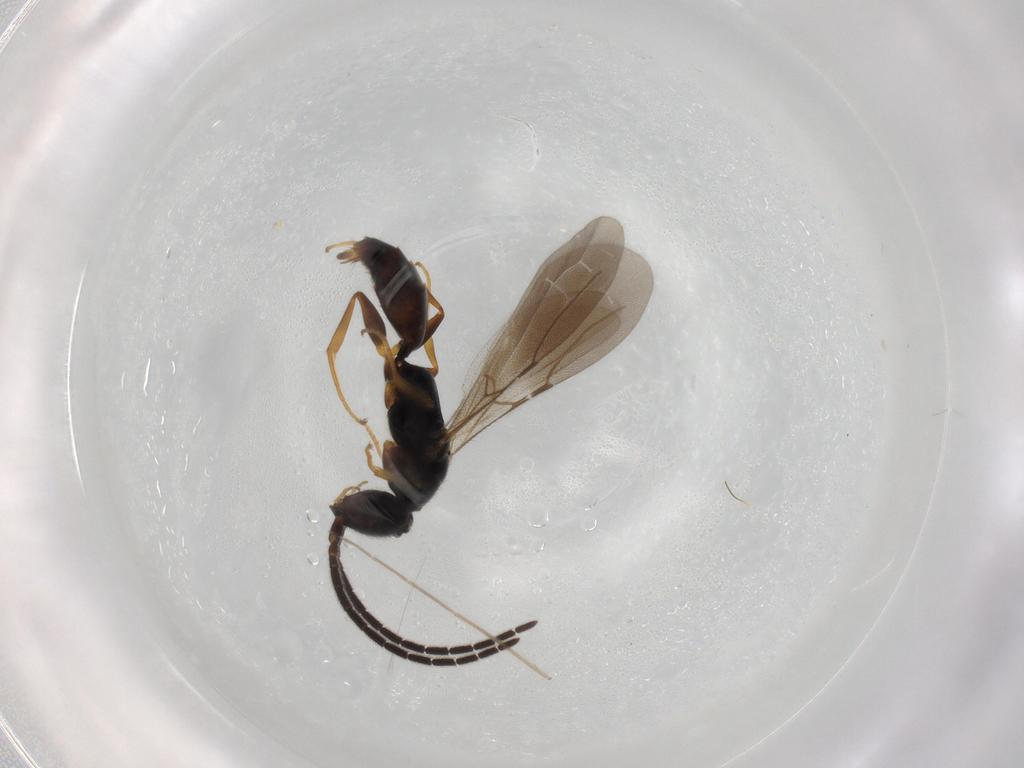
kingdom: Animalia
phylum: Arthropoda
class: Insecta
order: Hymenoptera
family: Bethylidae
